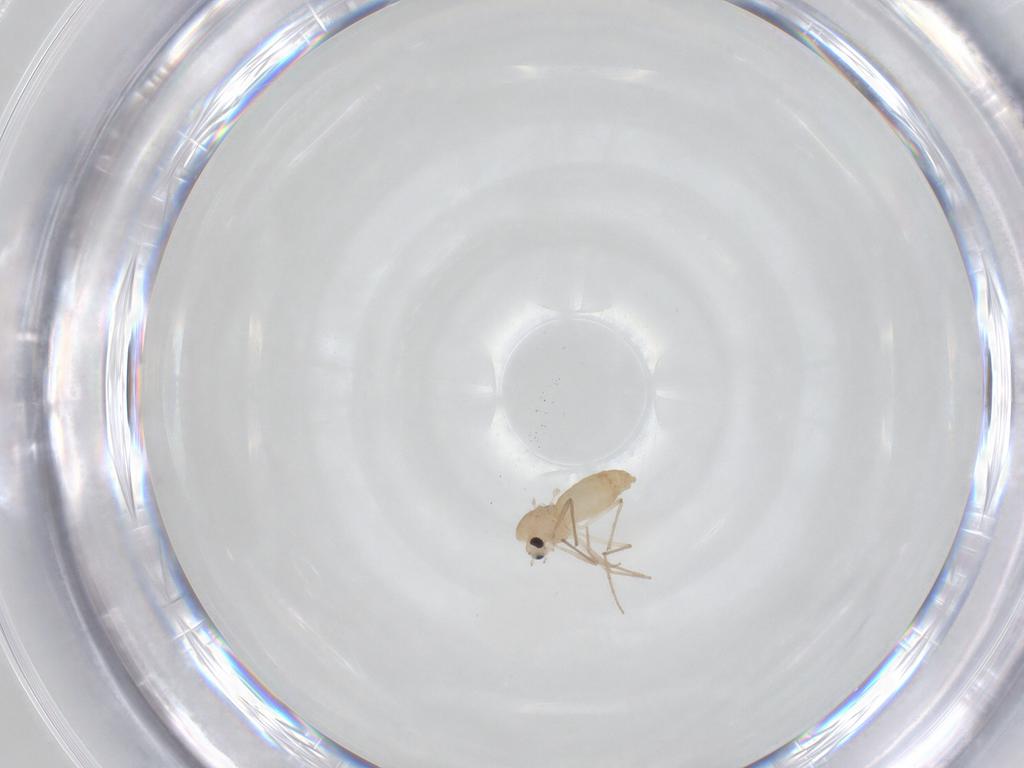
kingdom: Animalia
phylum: Arthropoda
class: Insecta
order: Diptera
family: Chironomidae
